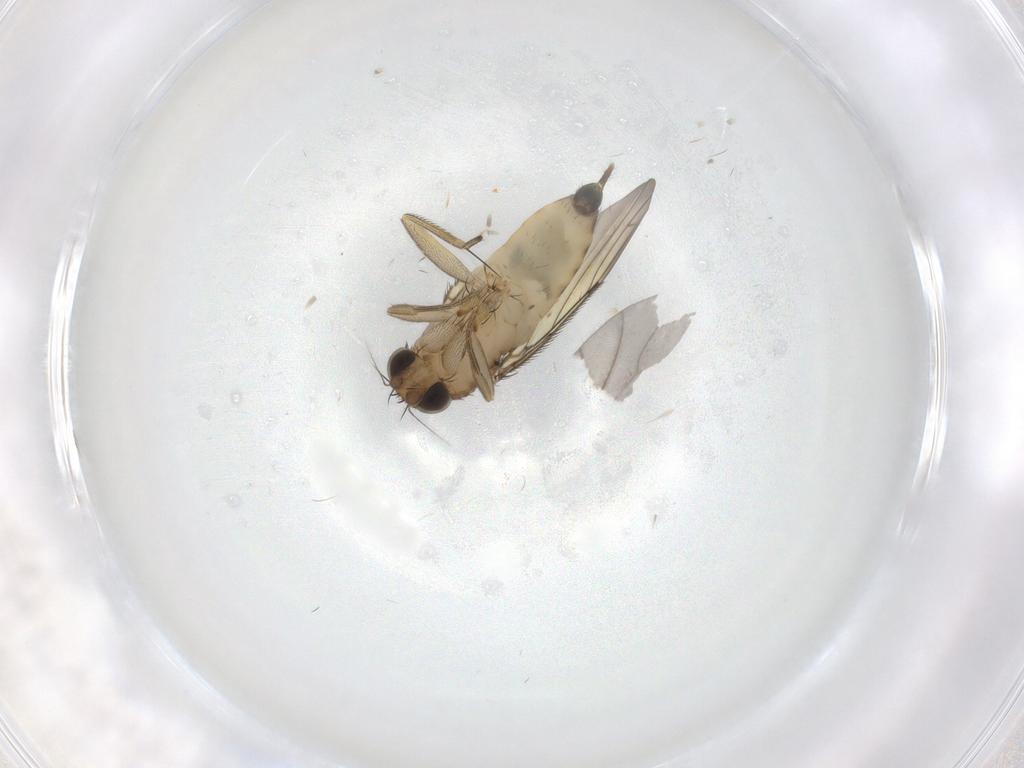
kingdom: Animalia
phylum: Arthropoda
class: Insecta
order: Diptera
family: Phoridae
